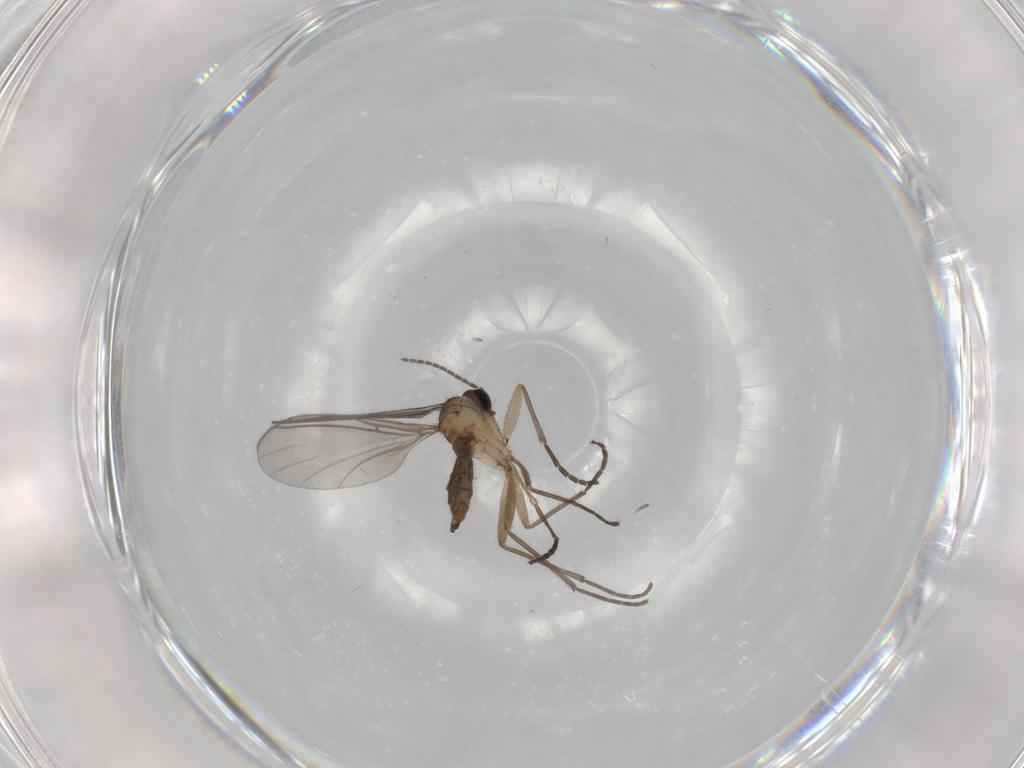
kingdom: Animalia
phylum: Arthropoda
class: Insecta
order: Diptera
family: Sciaridae
